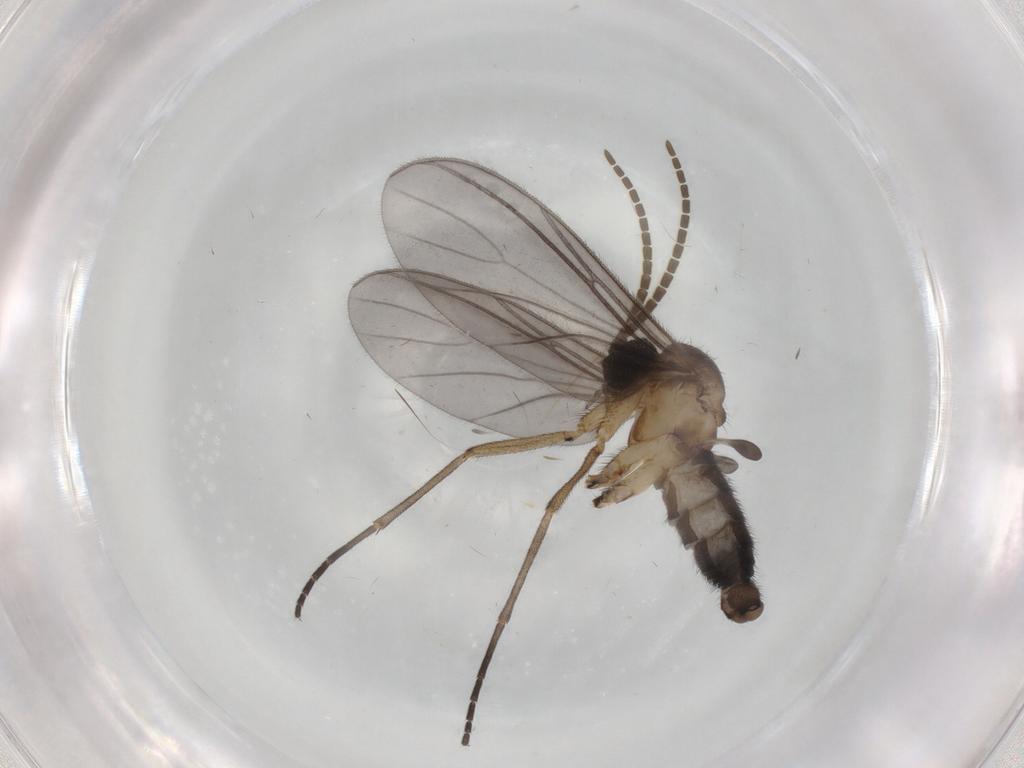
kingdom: Animalia
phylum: Arthropoda
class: Insecta
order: Diptera
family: Sciaridae
